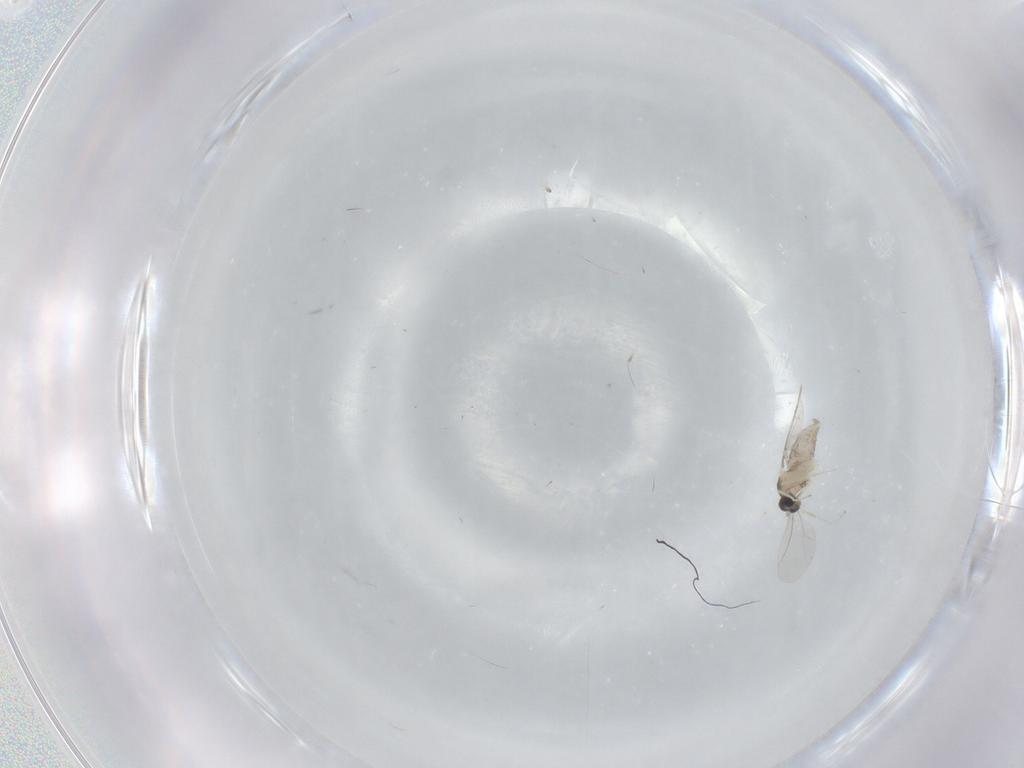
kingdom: Animalia
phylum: Arthropoda
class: Insecta
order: Diptera
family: Cecidomyiidae
